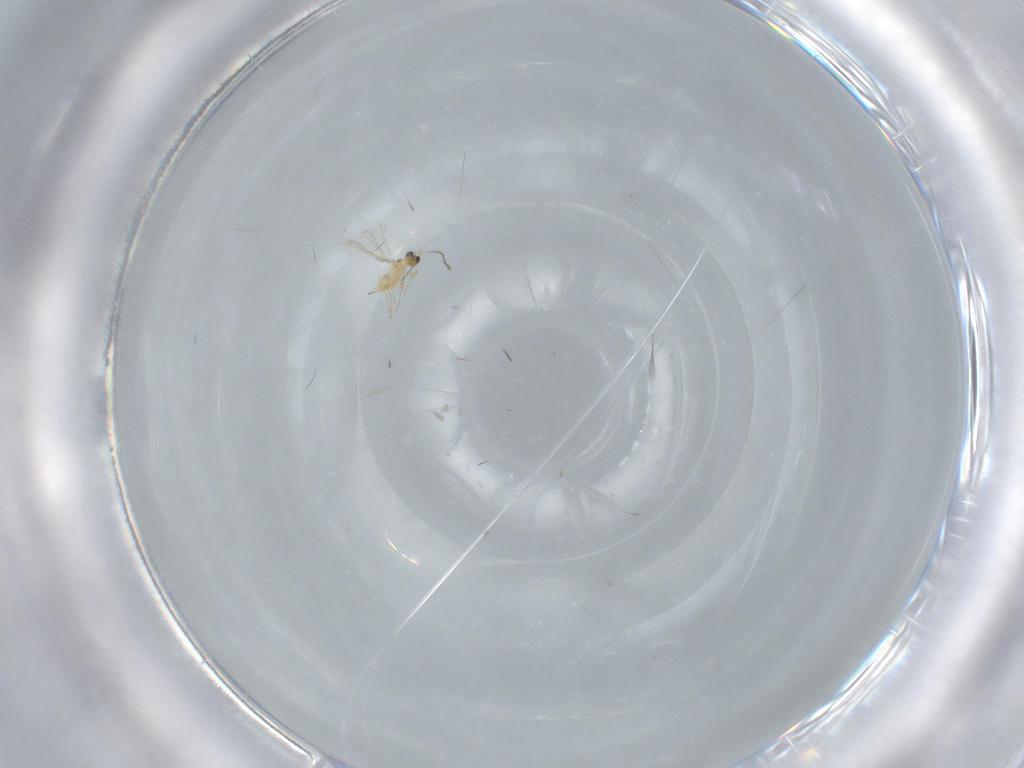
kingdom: Animalia
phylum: Arthropoda
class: Insecta
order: Hymenoptera
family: Mymaridae
